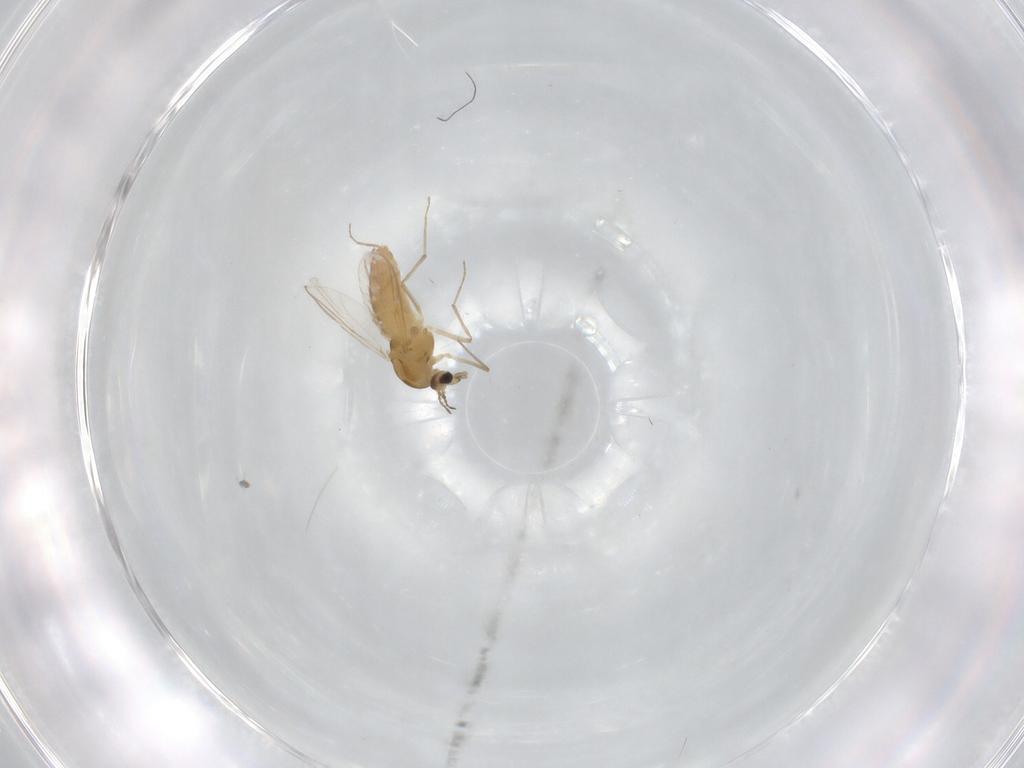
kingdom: Animalia
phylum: Arthropoda
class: Insecta
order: Diptera
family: Chironomidae
